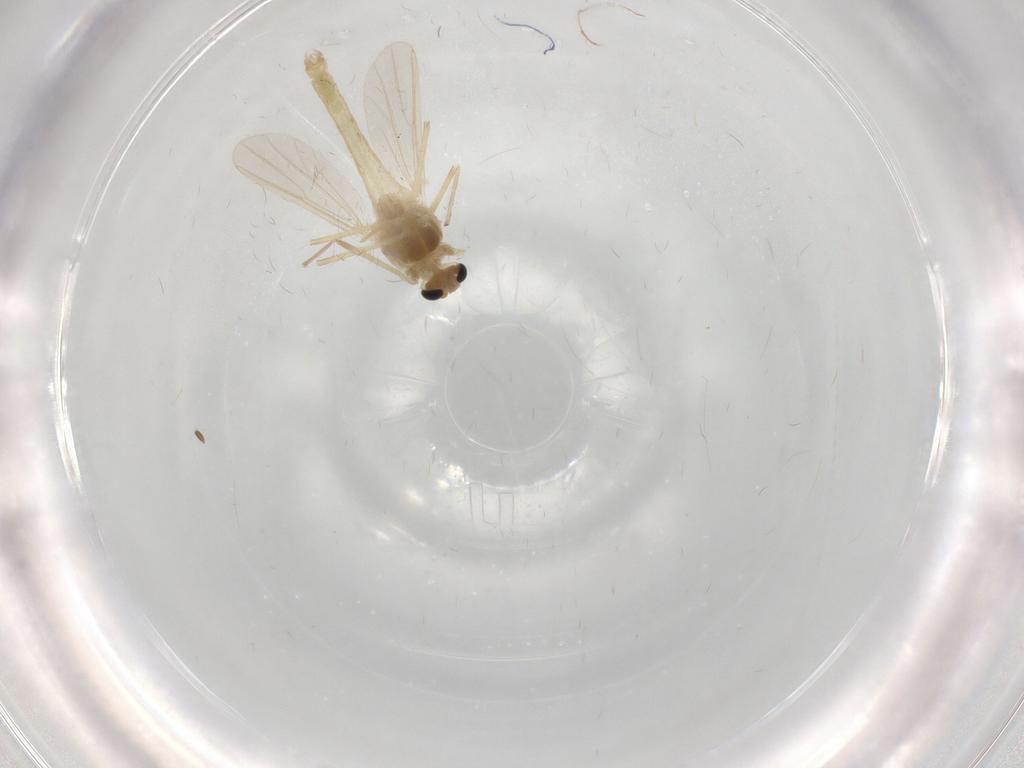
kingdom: Animalia
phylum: Arthropoda
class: Insecta
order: Diptera
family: Chironomidae
